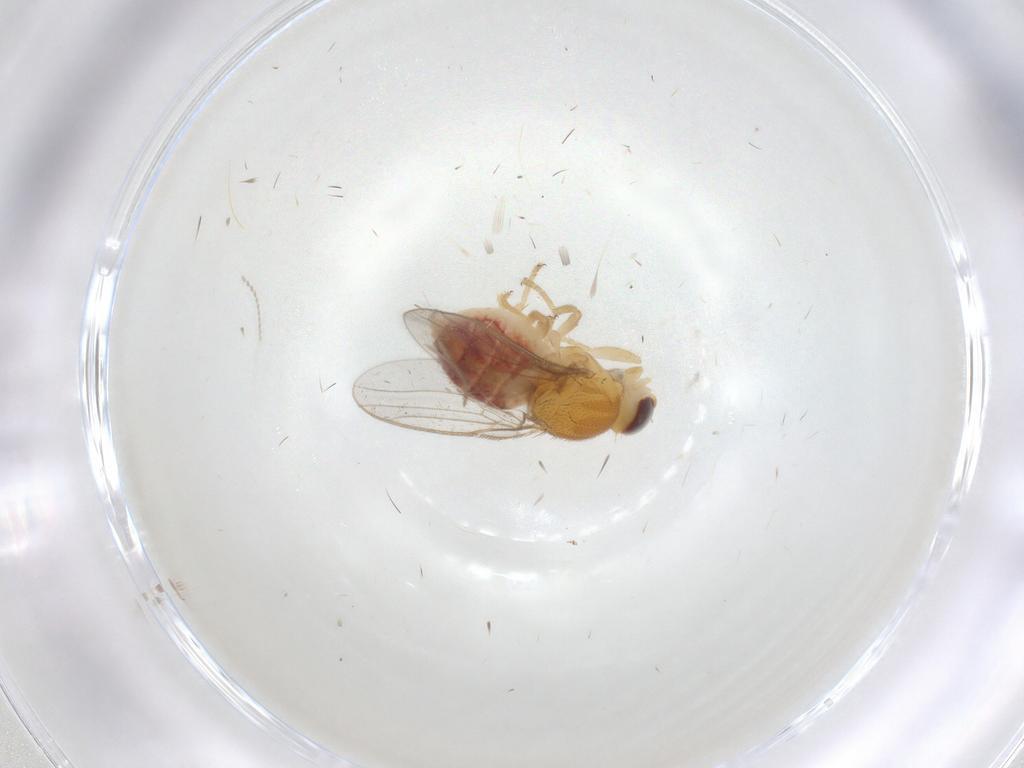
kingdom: Animalia
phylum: Arthropoda
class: Insecta
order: Diptera
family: Chloropidae
